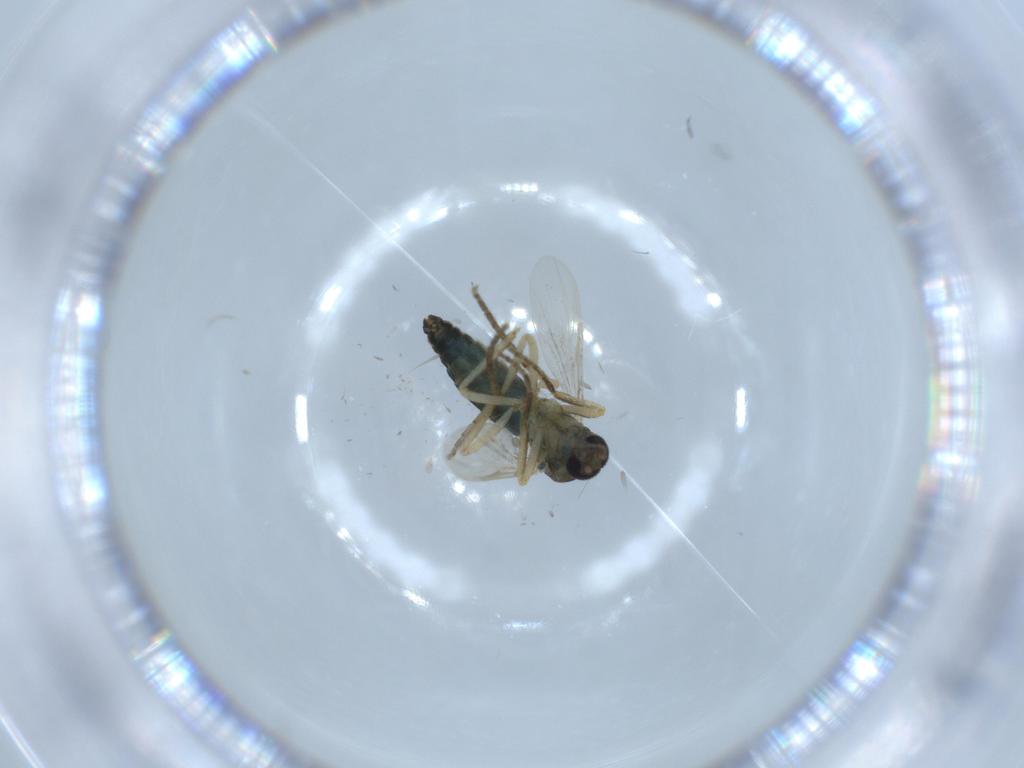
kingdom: Animalia
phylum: Arthropoda
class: Insecta
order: Diptera
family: Ceratopogonidae
